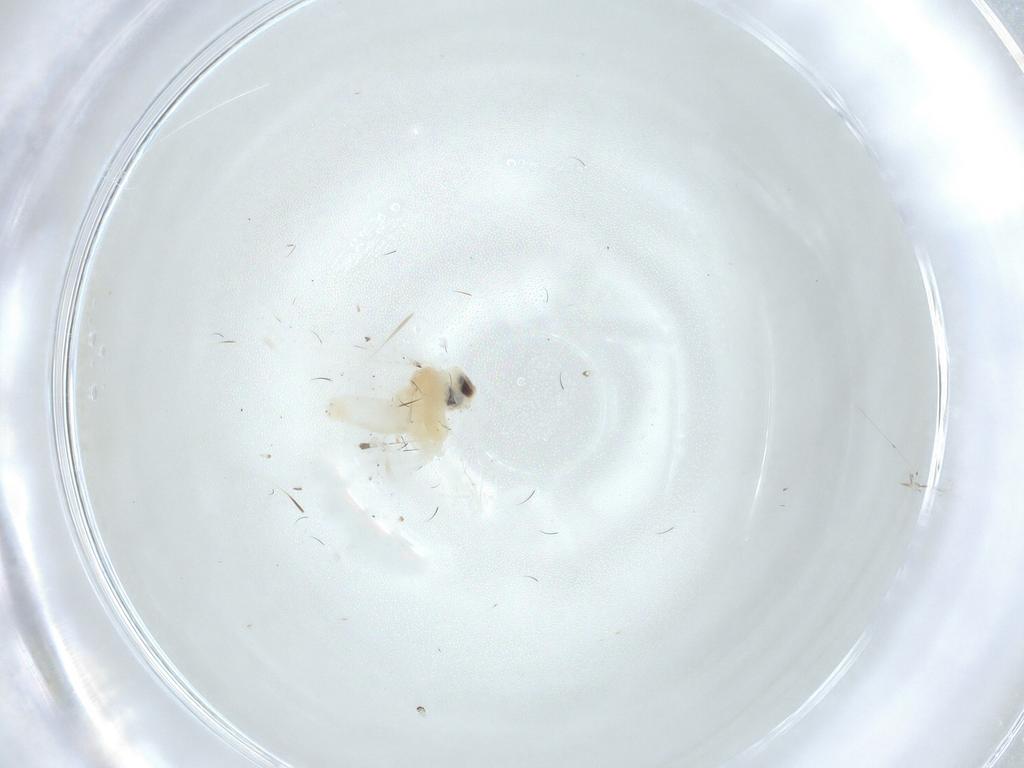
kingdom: Animalia
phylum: Arthropoda
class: Insecta
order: Lepidoptera
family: Gelechiidae
